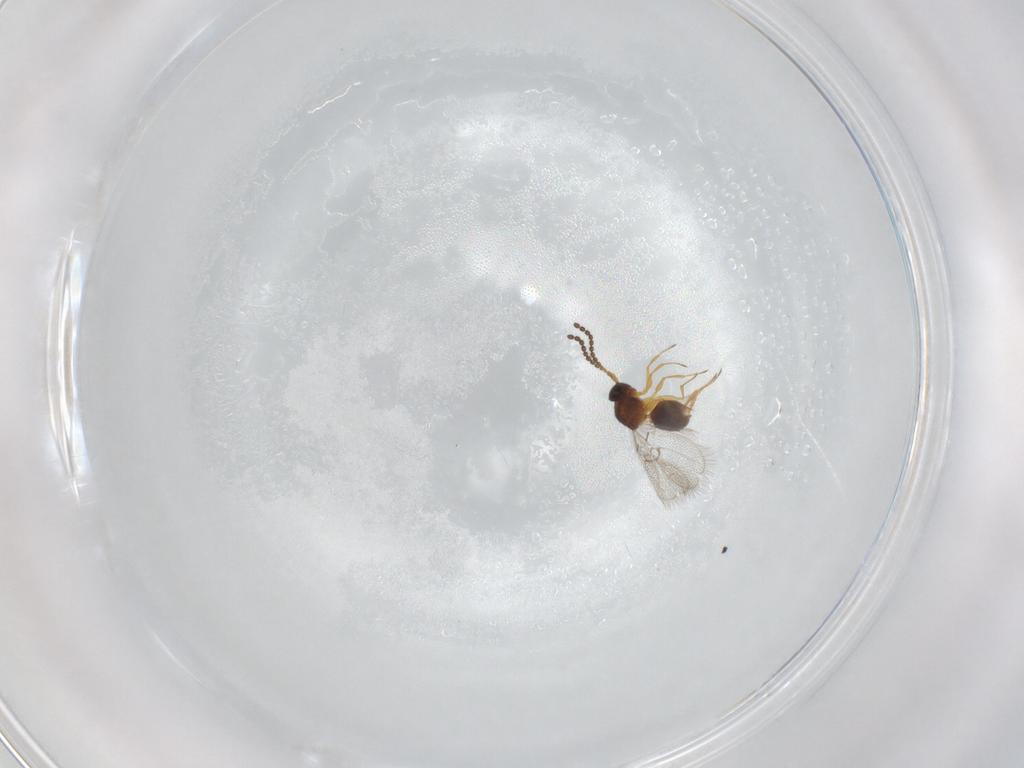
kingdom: Animalia
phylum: Arthropoda
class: Insecta
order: Hymenoptera
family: Figitidae
